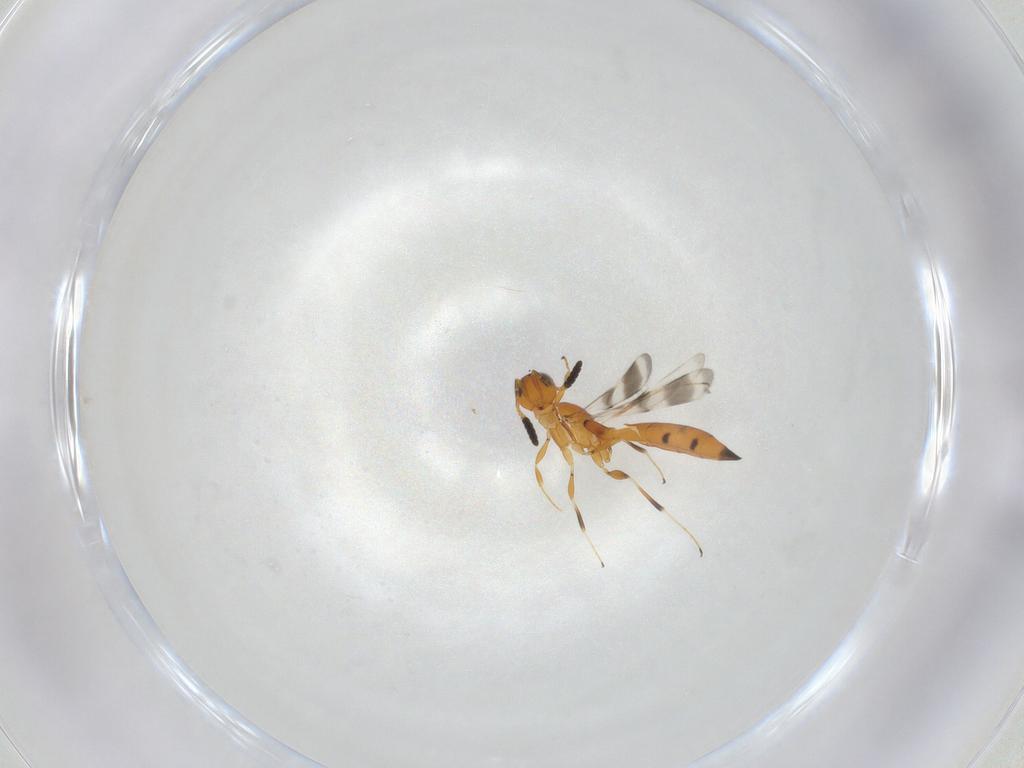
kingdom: Animalia
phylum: Arthropoda
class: Insecta
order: Hymenoptera
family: Scelionidae
